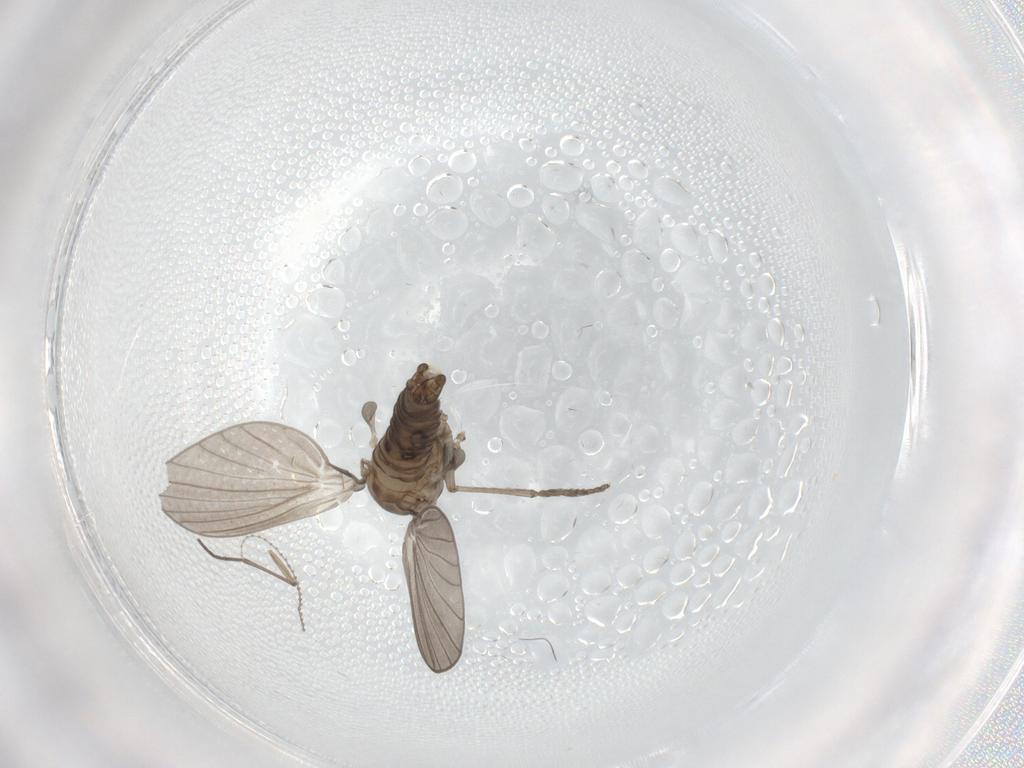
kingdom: Animalia
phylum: Arthropoda
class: Insecta
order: Diptera
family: Psychodidae
